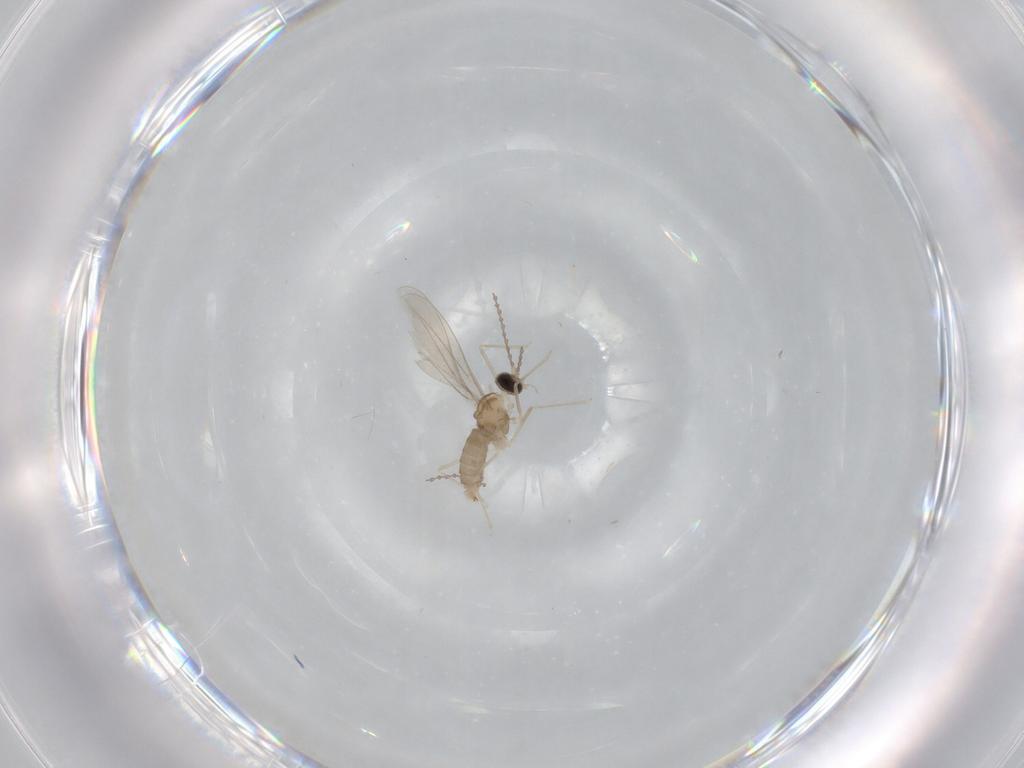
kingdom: Animalia
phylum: Arthropoda
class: Insecta
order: Diptera
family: Cecidomyiidae
